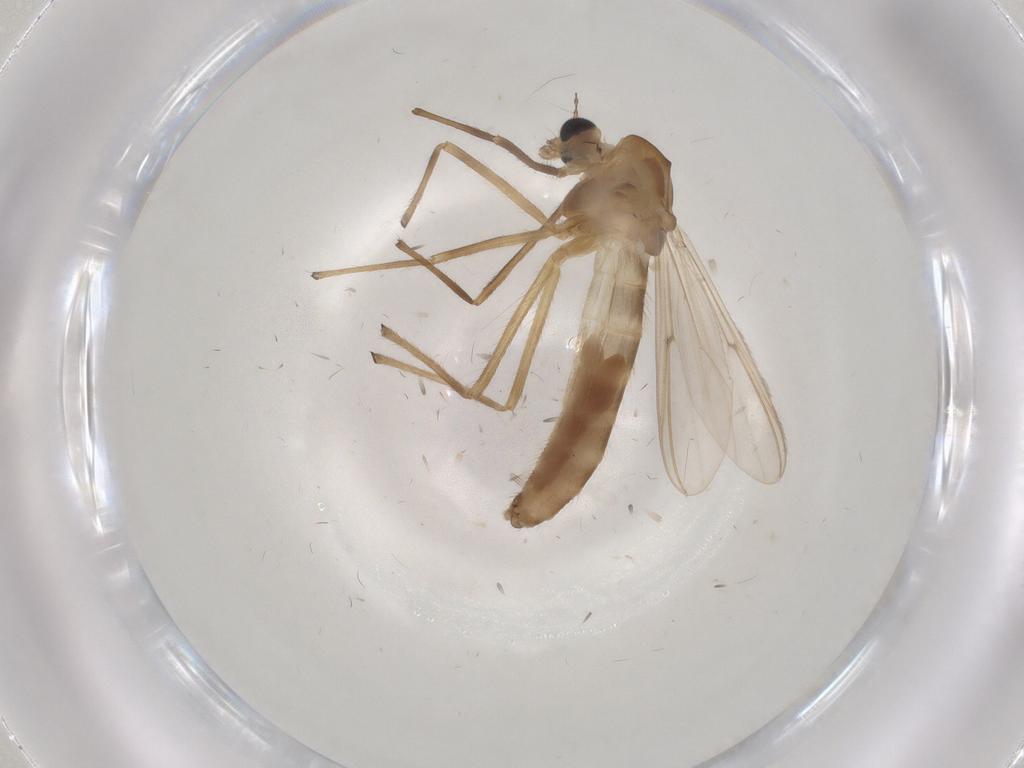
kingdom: Animalia
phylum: Arthropoda
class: Insecta
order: Diptera
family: Chironomidae
